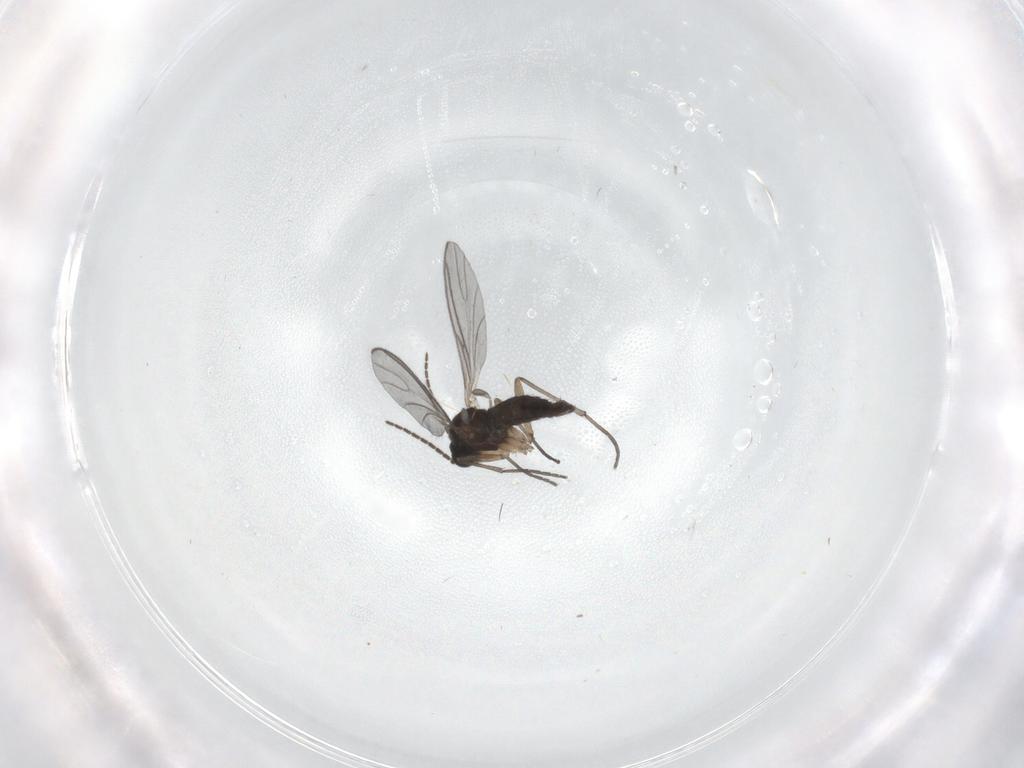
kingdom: Animalia
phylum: Arthropoda
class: Insecta
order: Diptera
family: Sciaridae
